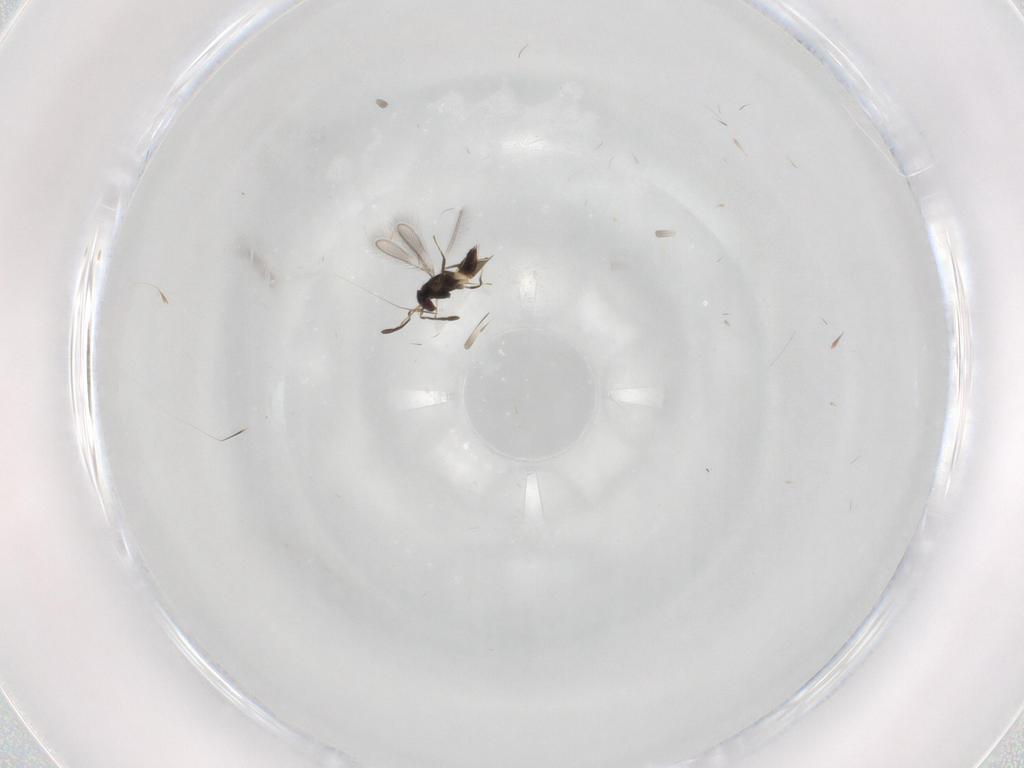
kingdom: Animalia
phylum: Arthropoda
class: Insecta
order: Hymenoptera
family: Mymaridae
